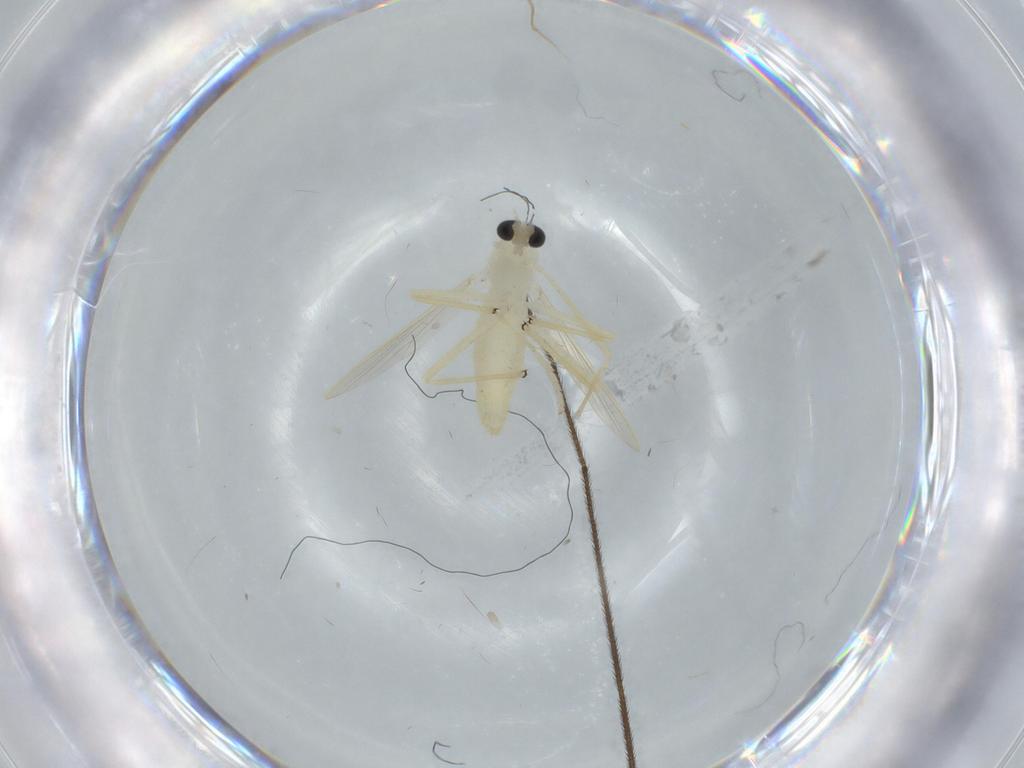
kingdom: Animalia
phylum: Arthropoda
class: Insecta
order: Diptera
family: Limoniidae
